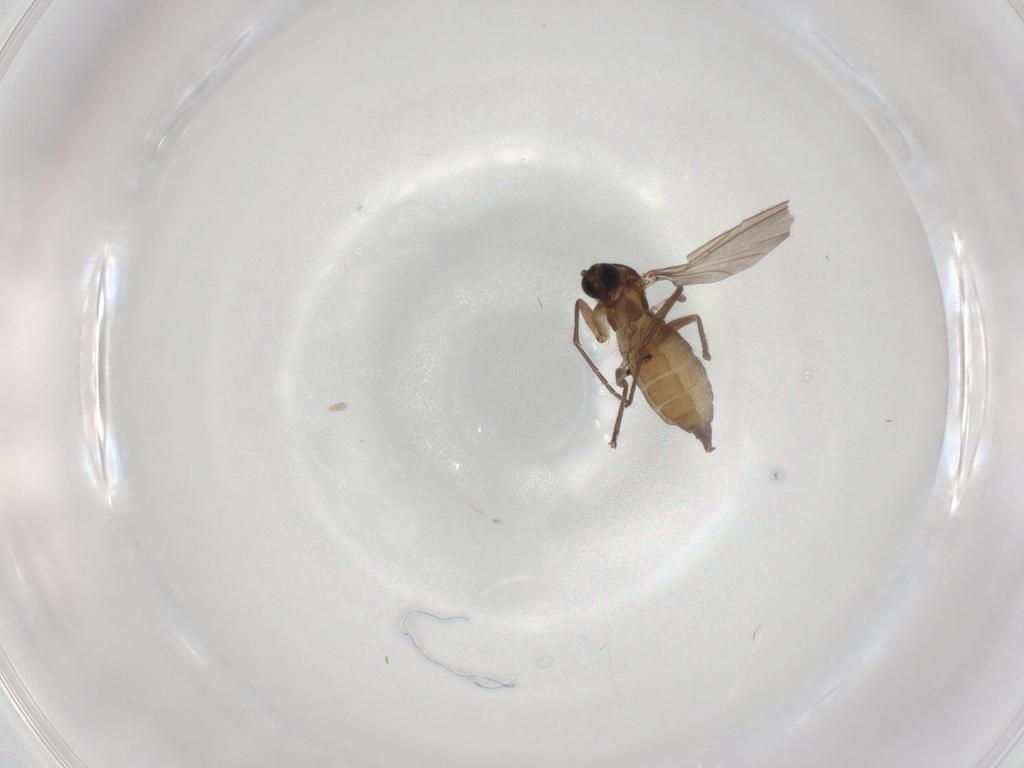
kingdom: Animalia
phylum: Arthropoda
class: Insecta
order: Diptera
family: Sciaridae
